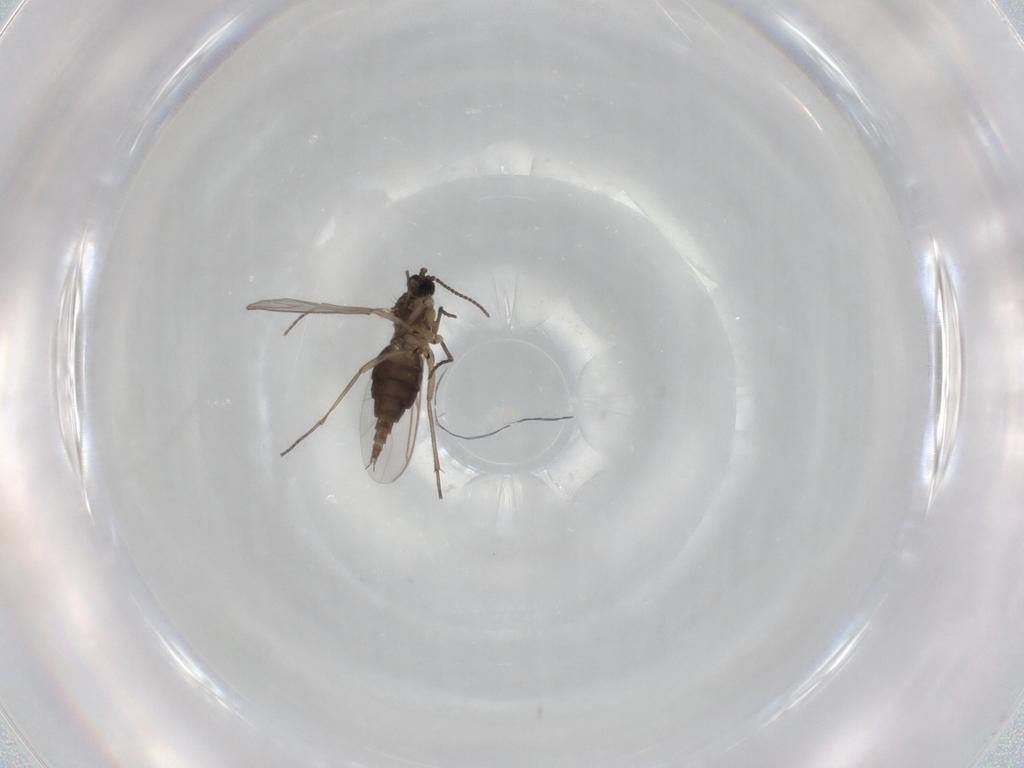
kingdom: Animalia
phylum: Arthropoda
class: Insecta
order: Diptera
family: Sciaridae
